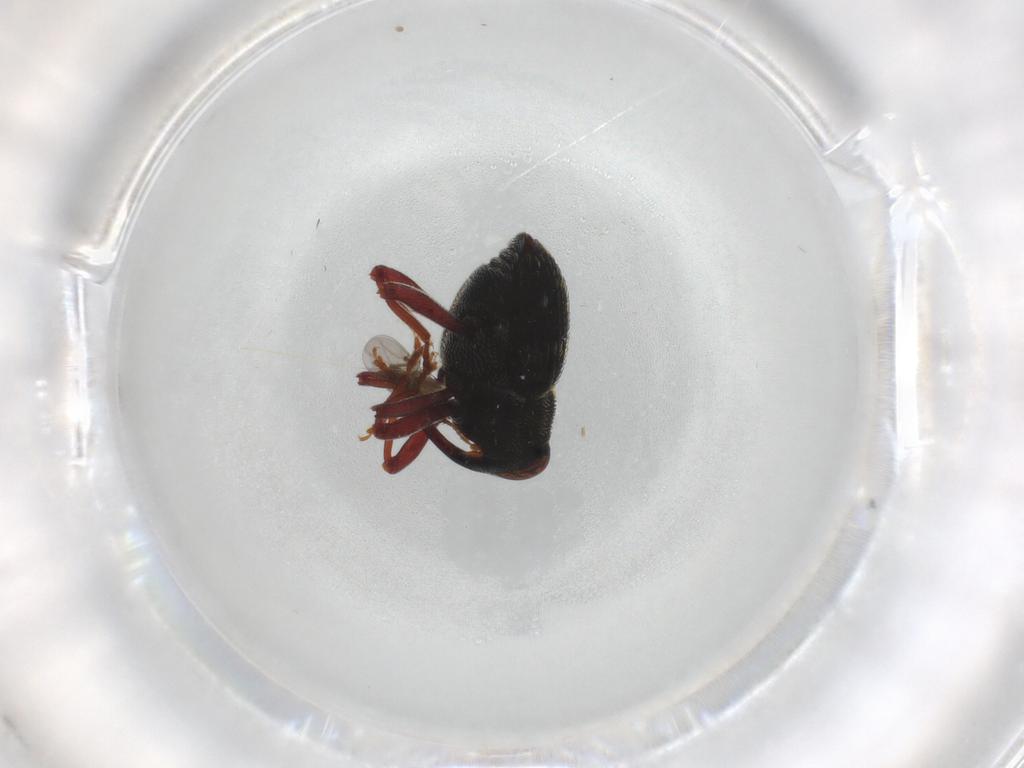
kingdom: Animalia
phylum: Arthropoda
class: Insecta
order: Coleoptera
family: Curculionidae
